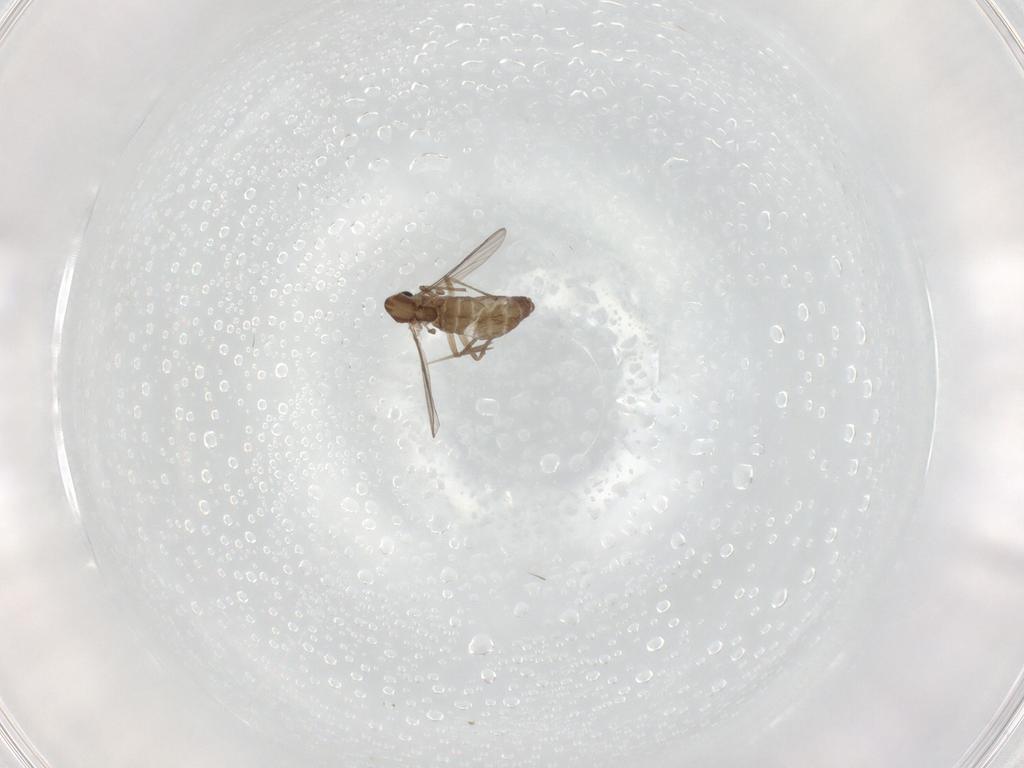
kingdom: Animalia
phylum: Arthropoda
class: Insecta
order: Diptera
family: Chironomidae
